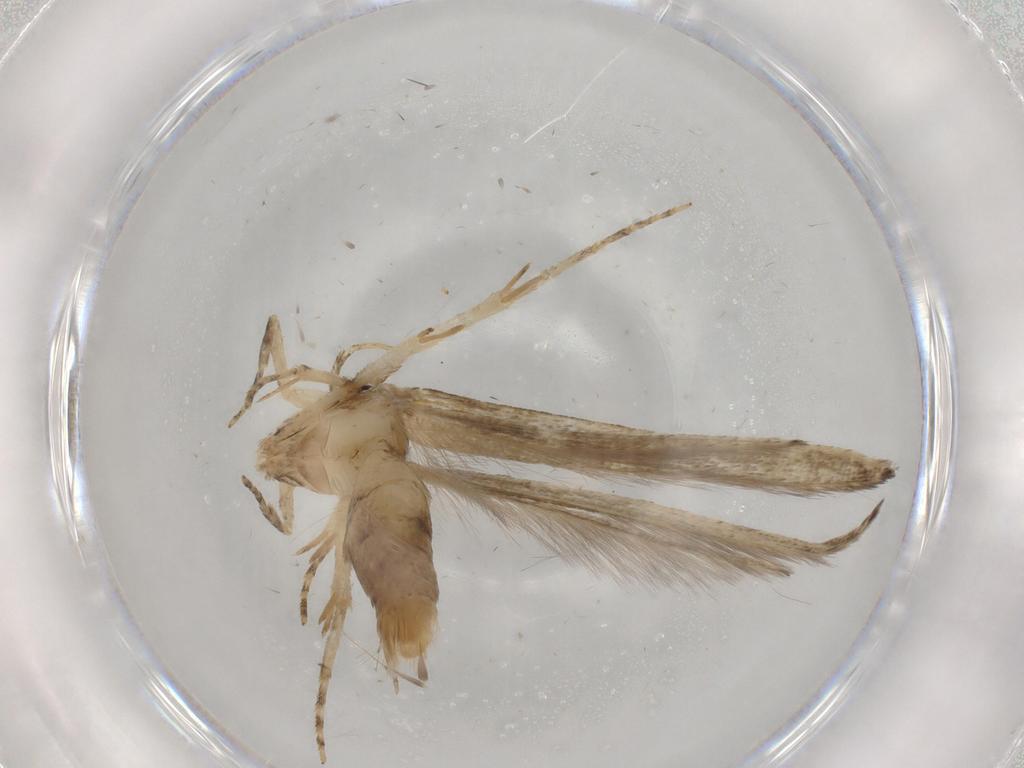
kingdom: Animalia
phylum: Arthropoda
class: Insecta
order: Lepidoptera
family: Cosmopterigidae
